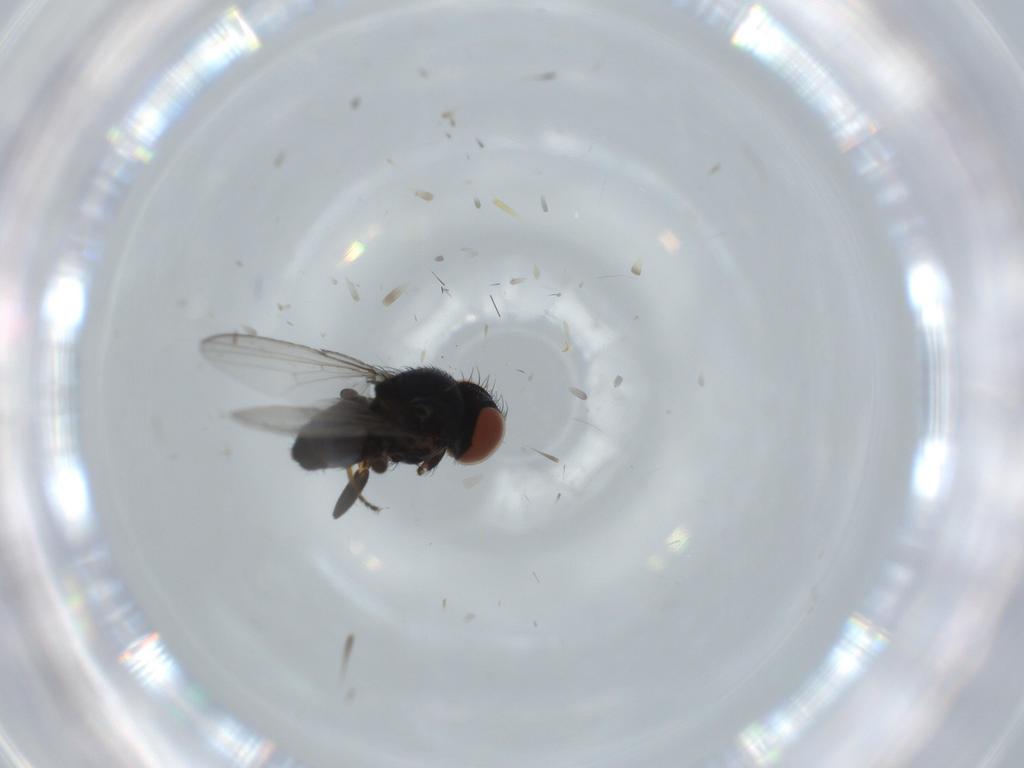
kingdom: Animalia
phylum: Arthropoda
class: Insecta
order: Diptera
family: Milichiidae
